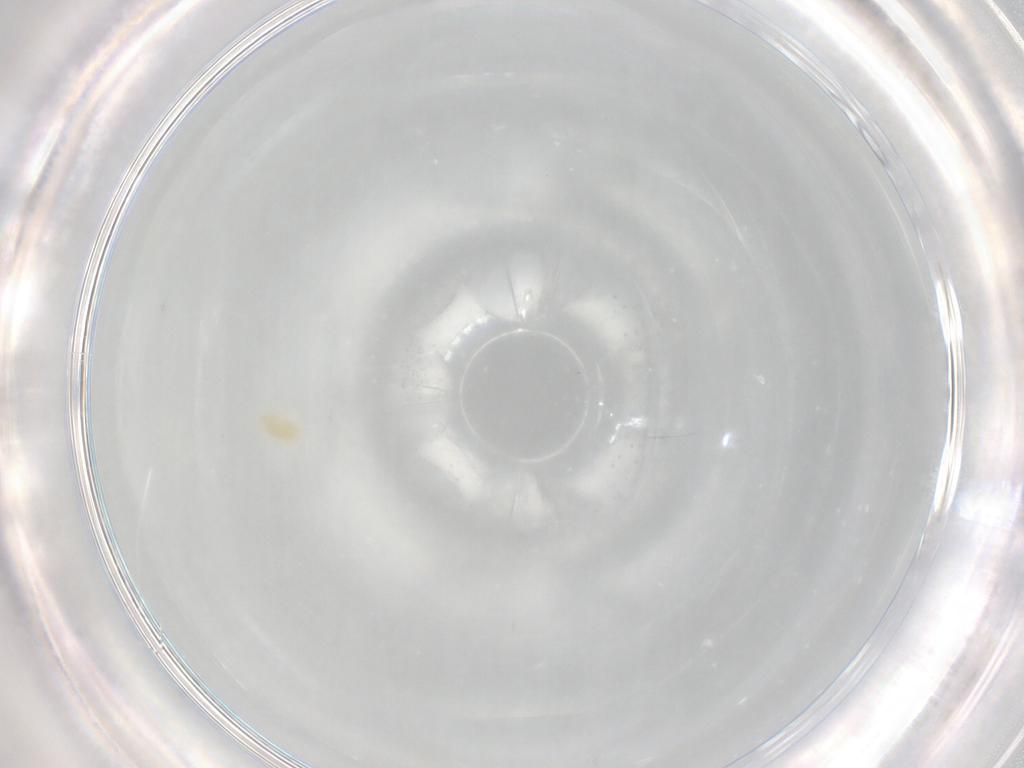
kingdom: Animalia
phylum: Arthropoda
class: Arachnida
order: Trombidiformes
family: Eupodidae
